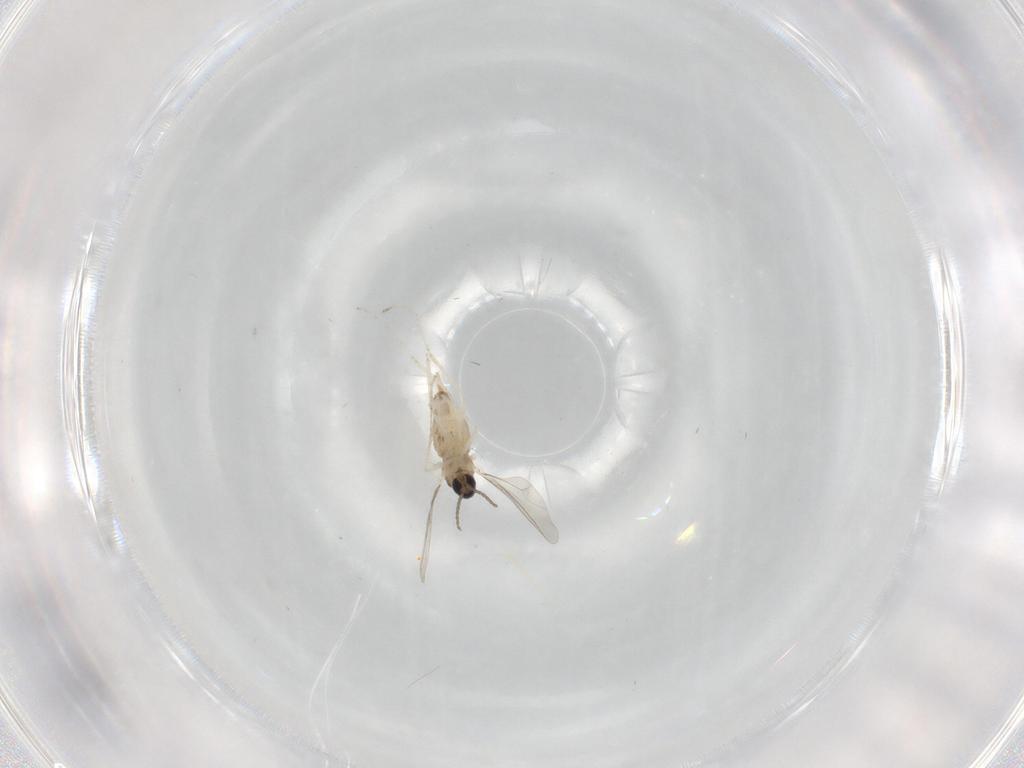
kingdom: Animalia
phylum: Arthropoda
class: Insecta
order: Diptera
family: Cecidomyiidae
